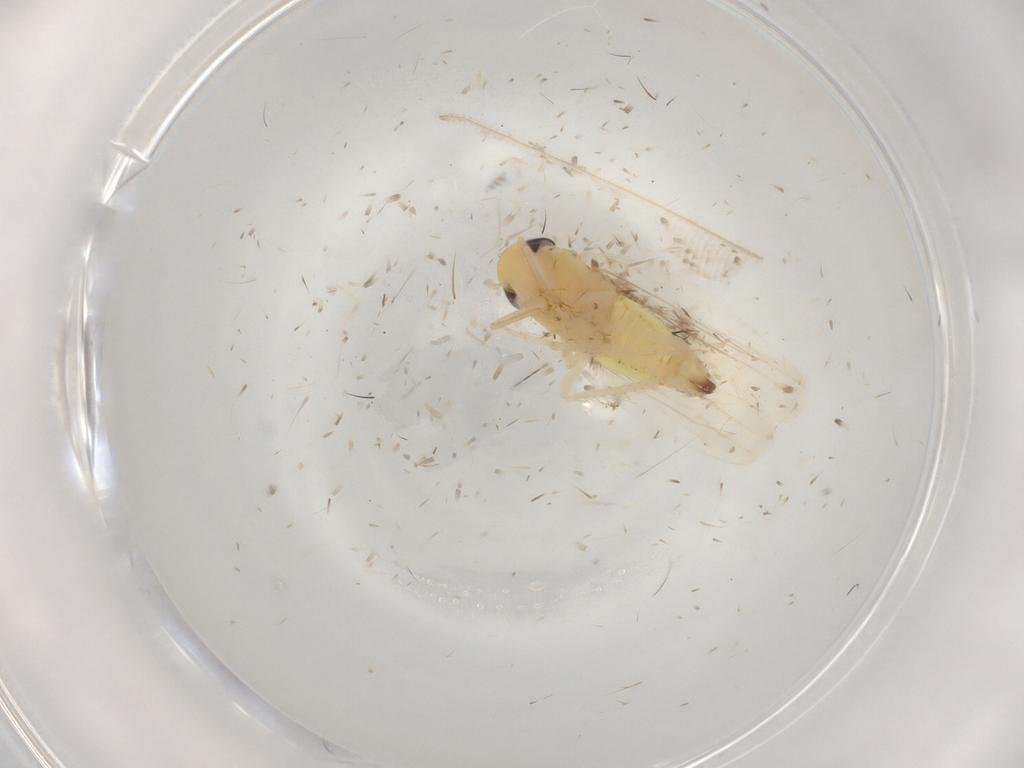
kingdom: Animalia
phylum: Arthropoda
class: Insecta
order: Hemiptera
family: Cicadellidae
